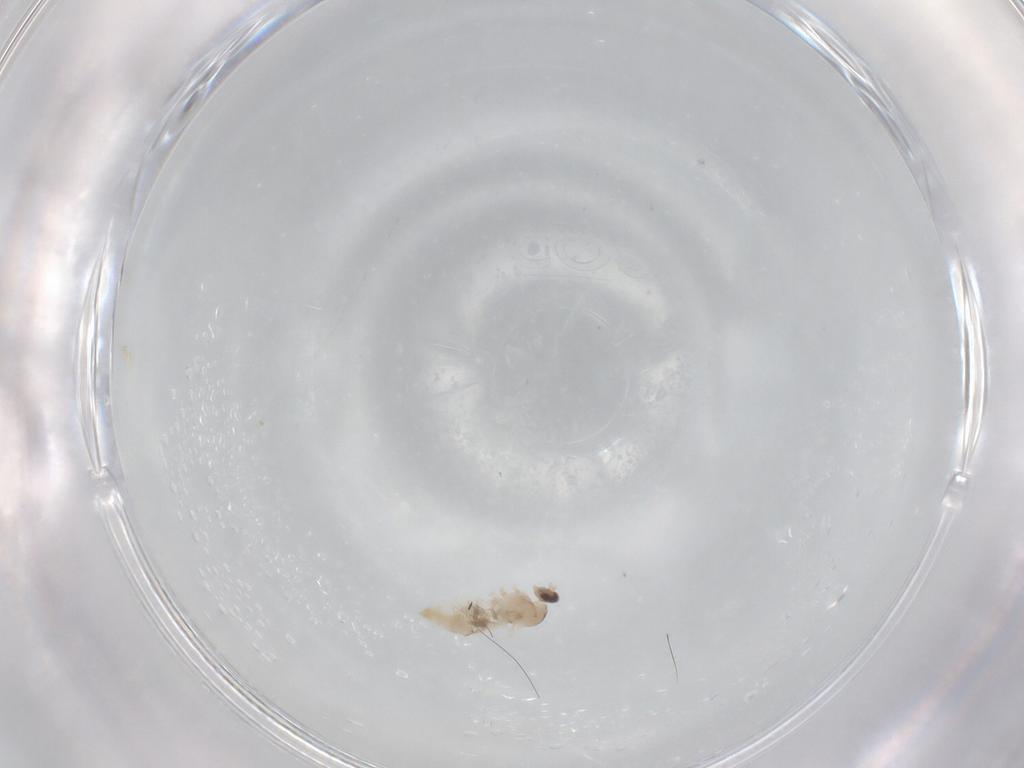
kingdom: Animalia
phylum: Arthropoda
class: Insecta
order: Diptera
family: Cecidomyiidae
